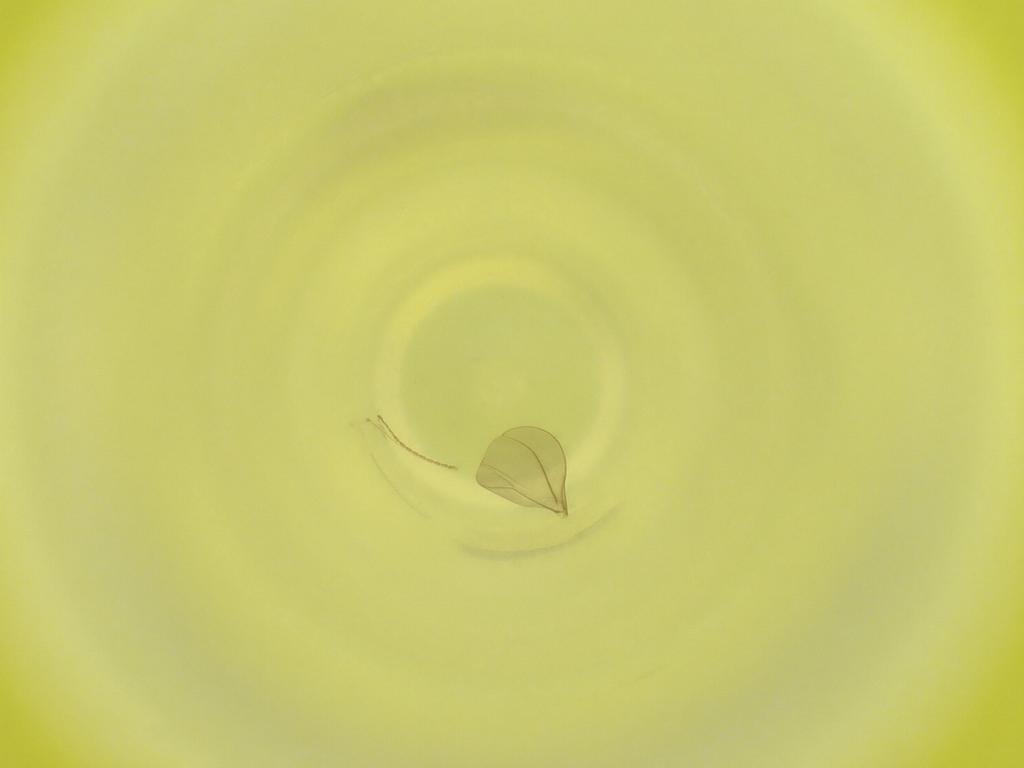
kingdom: Animalia
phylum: Arthropoda
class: Insecta
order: Diptera
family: Cecidomyiidae
